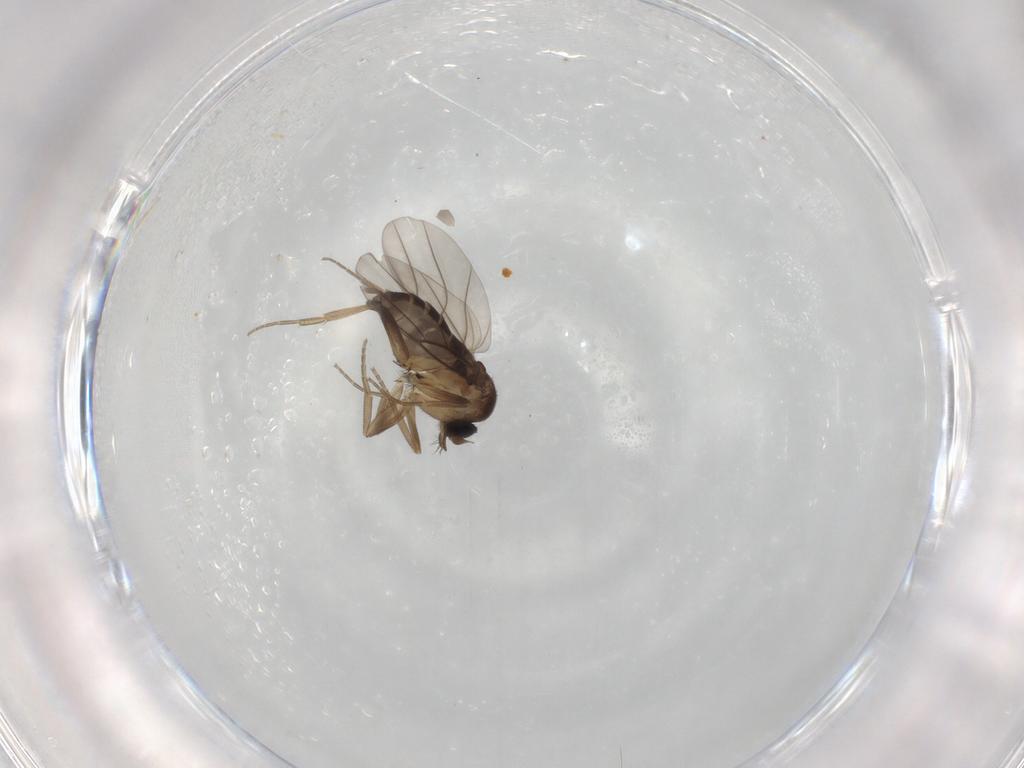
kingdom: Animalia
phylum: Arthropoda
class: Insecta
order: Diptera
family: Phoridae
